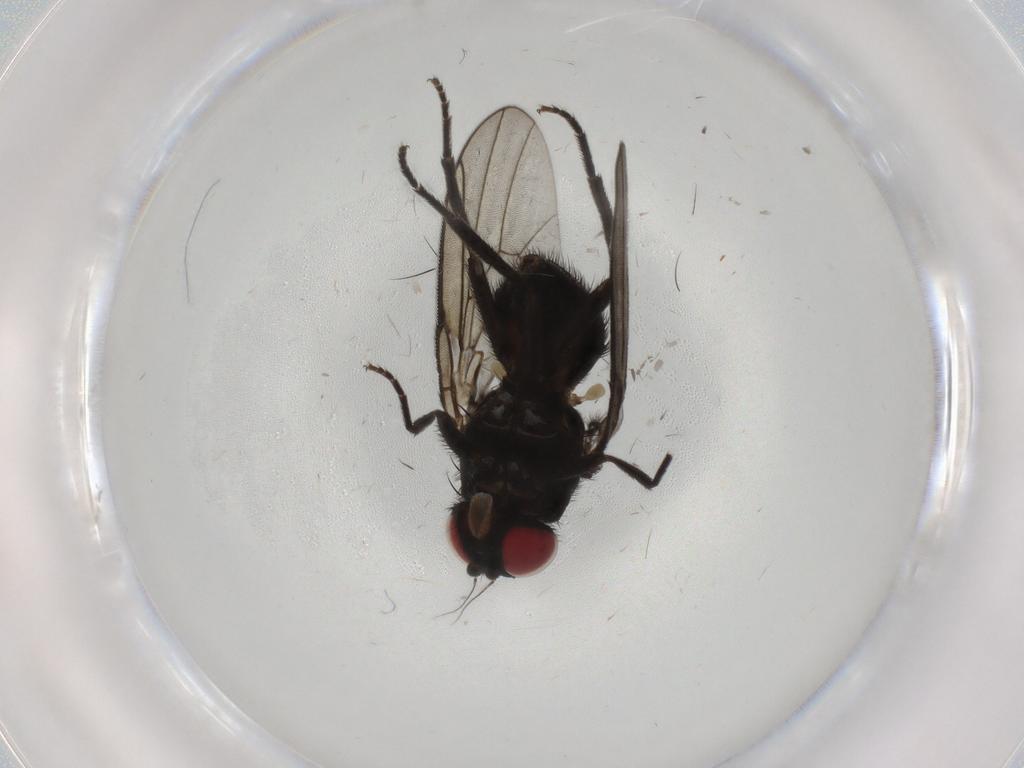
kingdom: Animalia
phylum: Arthropoda
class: Insecta
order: Diptera
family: Agromyzidae
